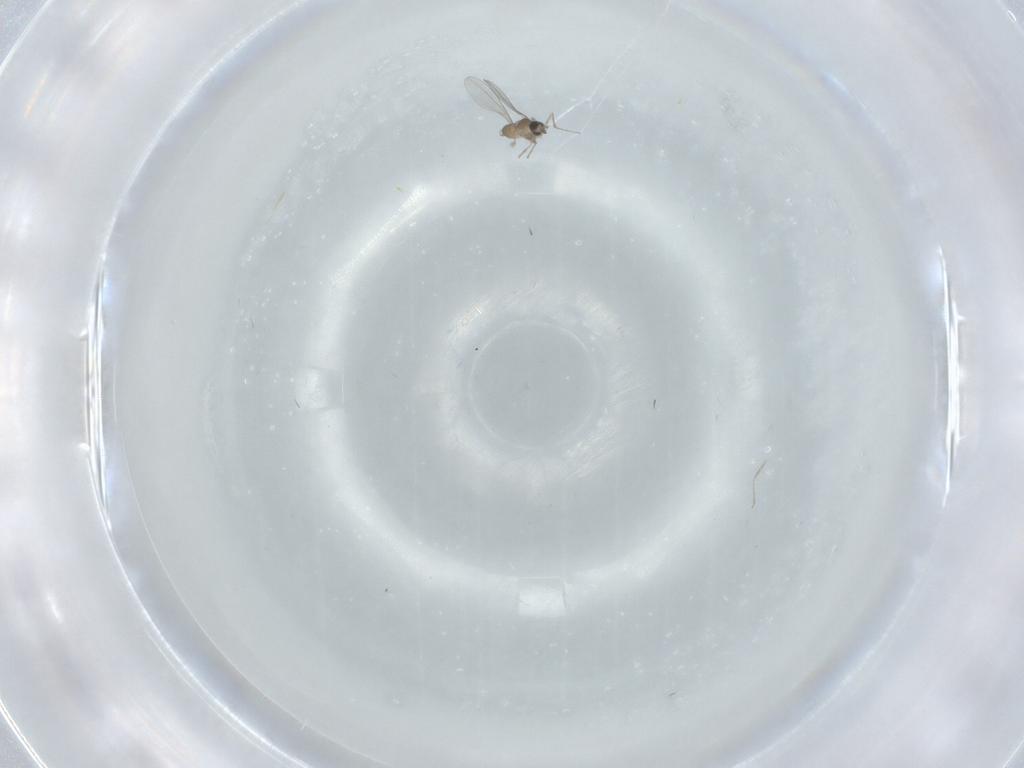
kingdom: Animalia
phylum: Arthropoda
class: Insecta
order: Diptera
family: Cecidomyiidae
